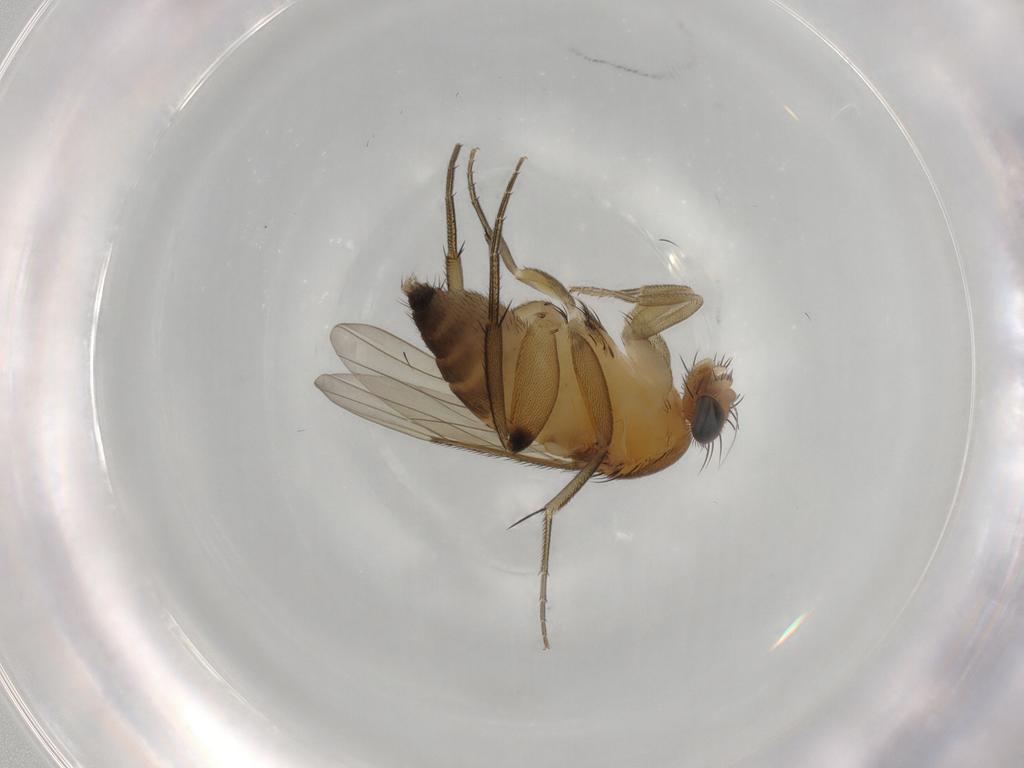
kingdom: Animalia
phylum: Arthropoda
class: Insecta
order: Diptera
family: Phoridae
